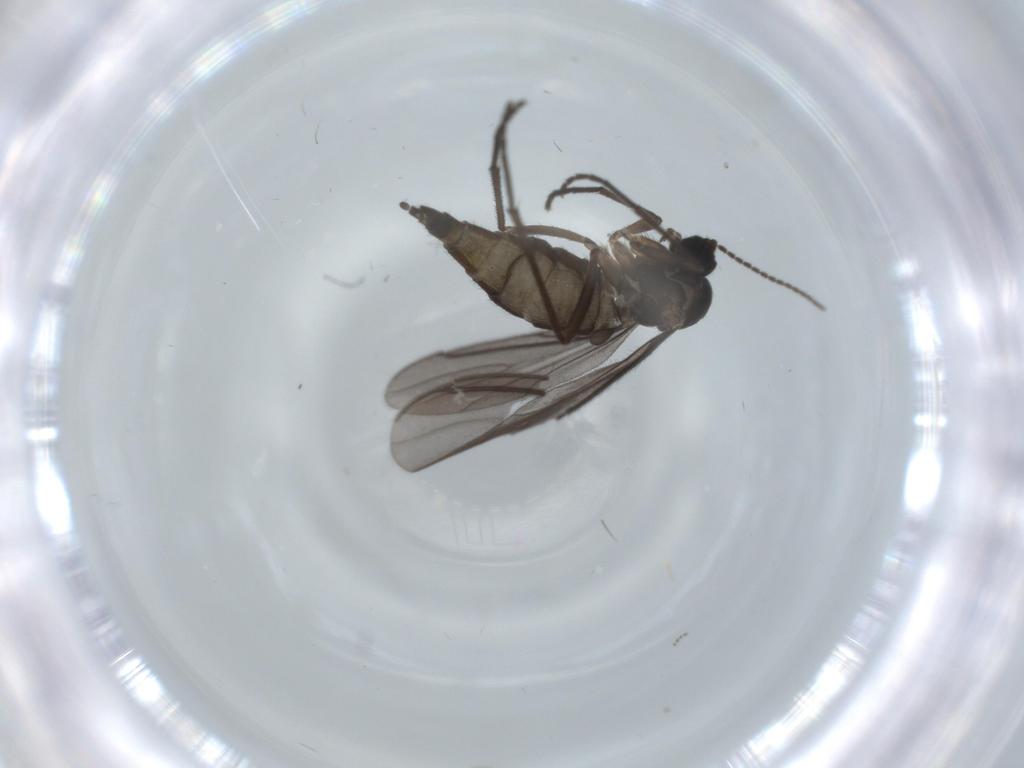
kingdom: Animalia
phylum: Arthropoda
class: Insecta
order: Diptera
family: Sciaridae
